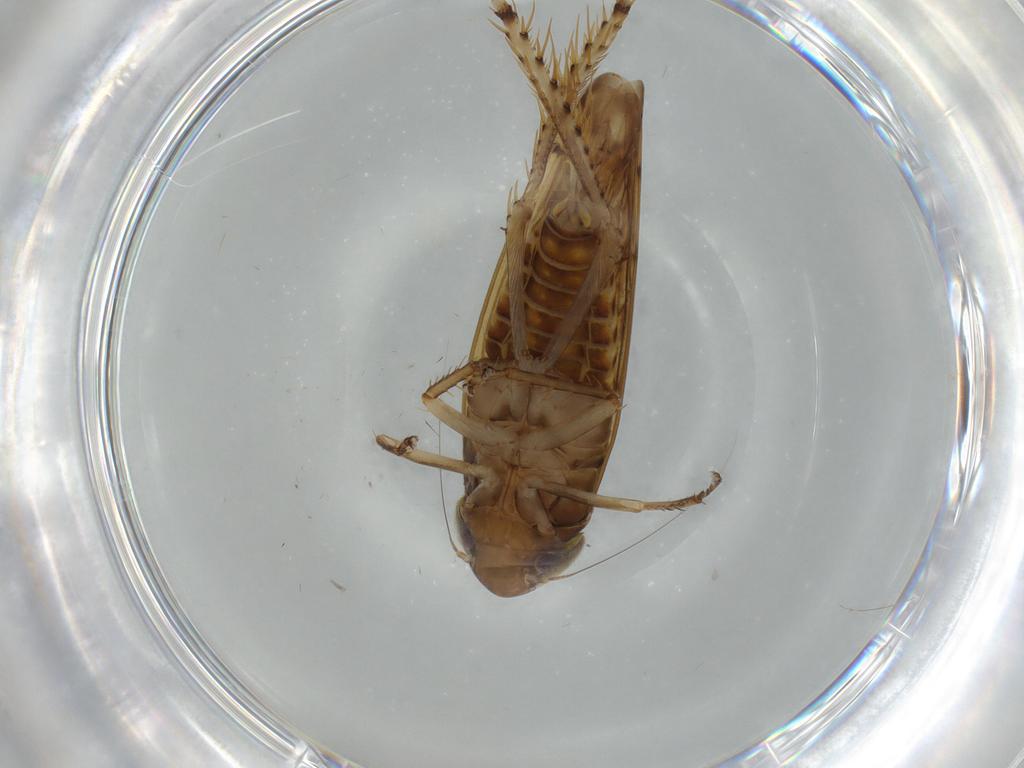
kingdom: Animalia
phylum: Arthropoda
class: Insecta
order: Hemiptera
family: Cicadellidae
